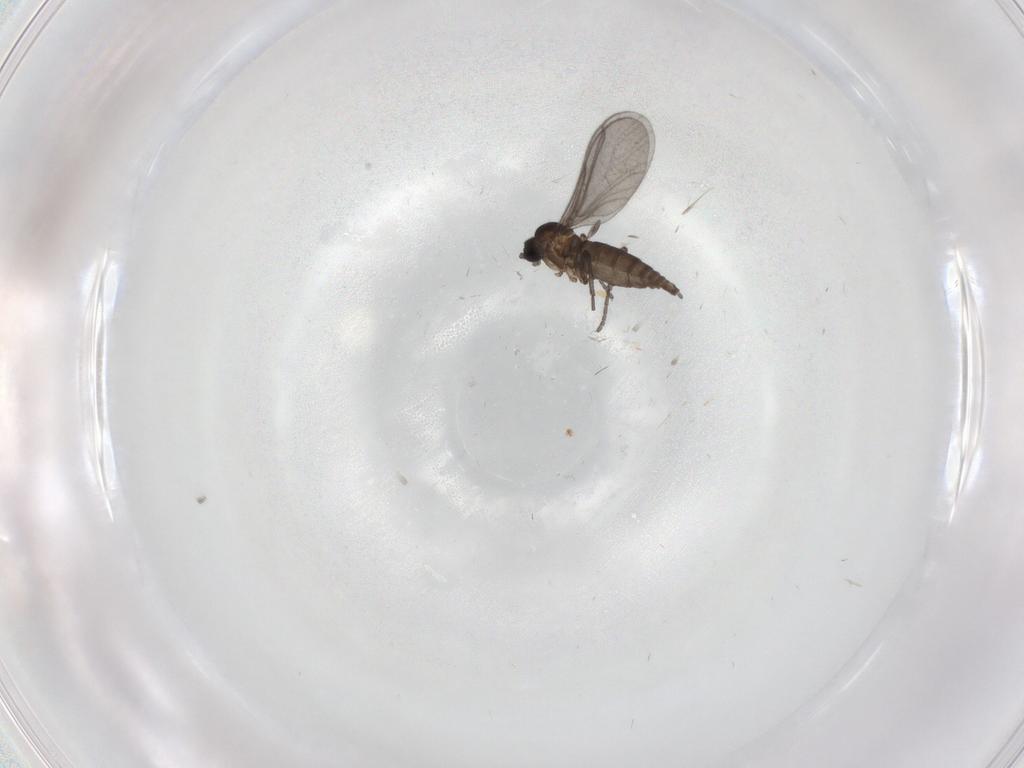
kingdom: Animalia
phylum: Arthropoda
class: Insecta
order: Diptera
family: Sciaridae
